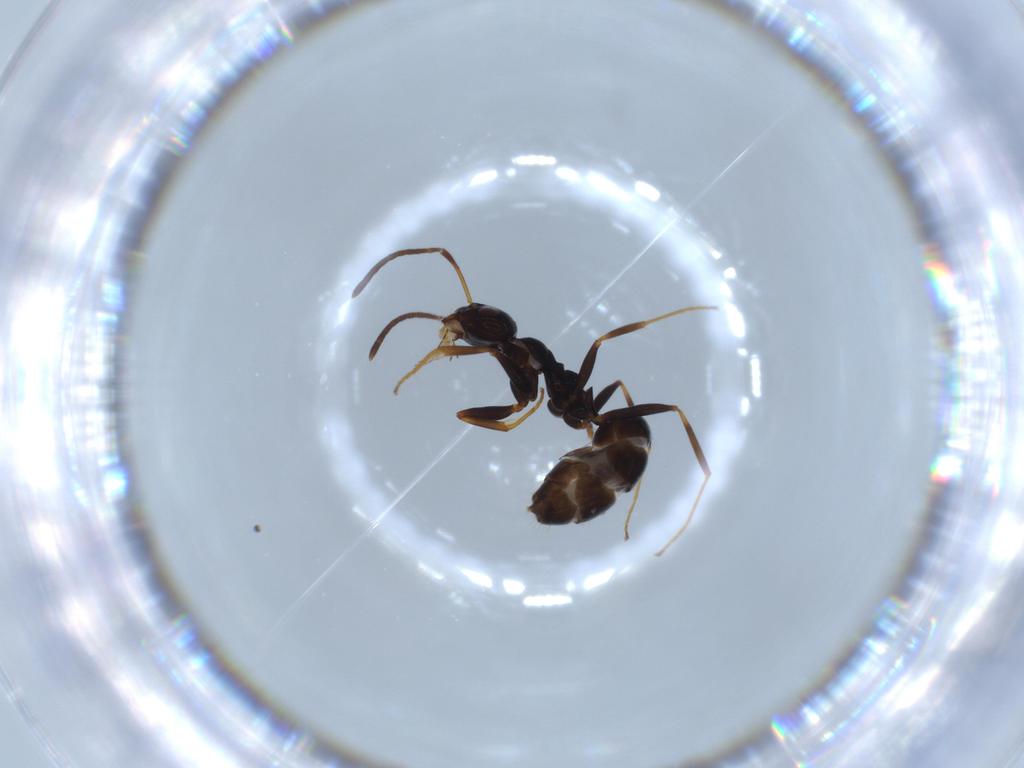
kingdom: Animalia
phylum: Arthropoda
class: Insecta
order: Hymenoptera
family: Formicidae
